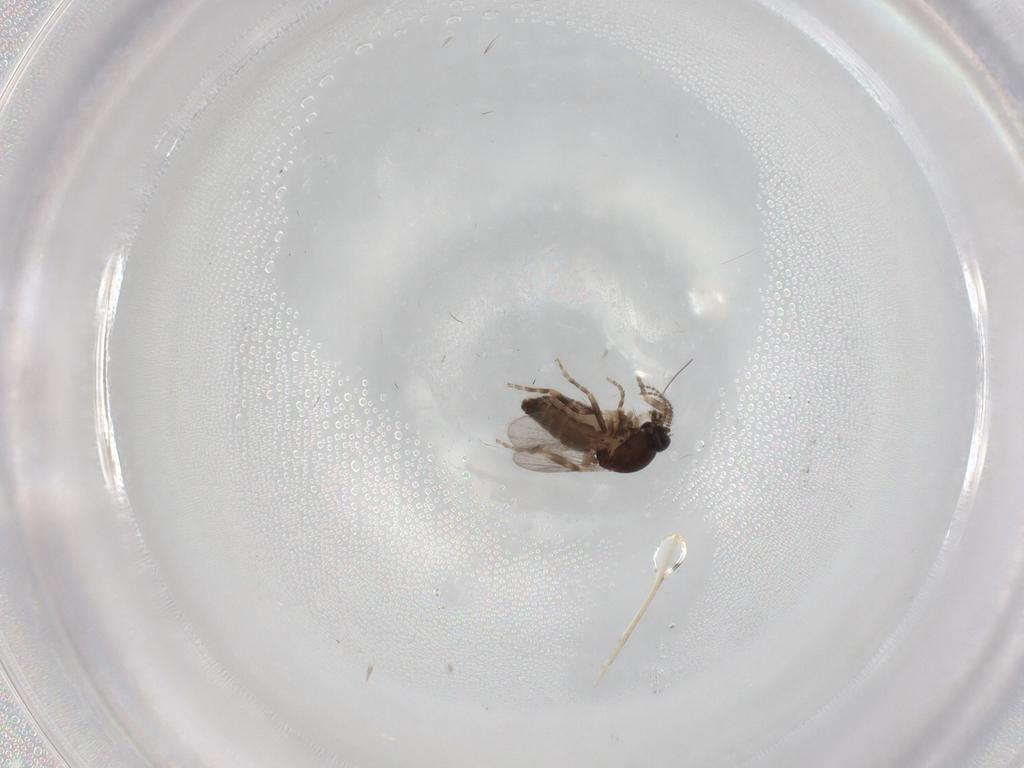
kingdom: Animalia
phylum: Arthropoda
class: Insecta
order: Diptera
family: Ceratopogonidae
